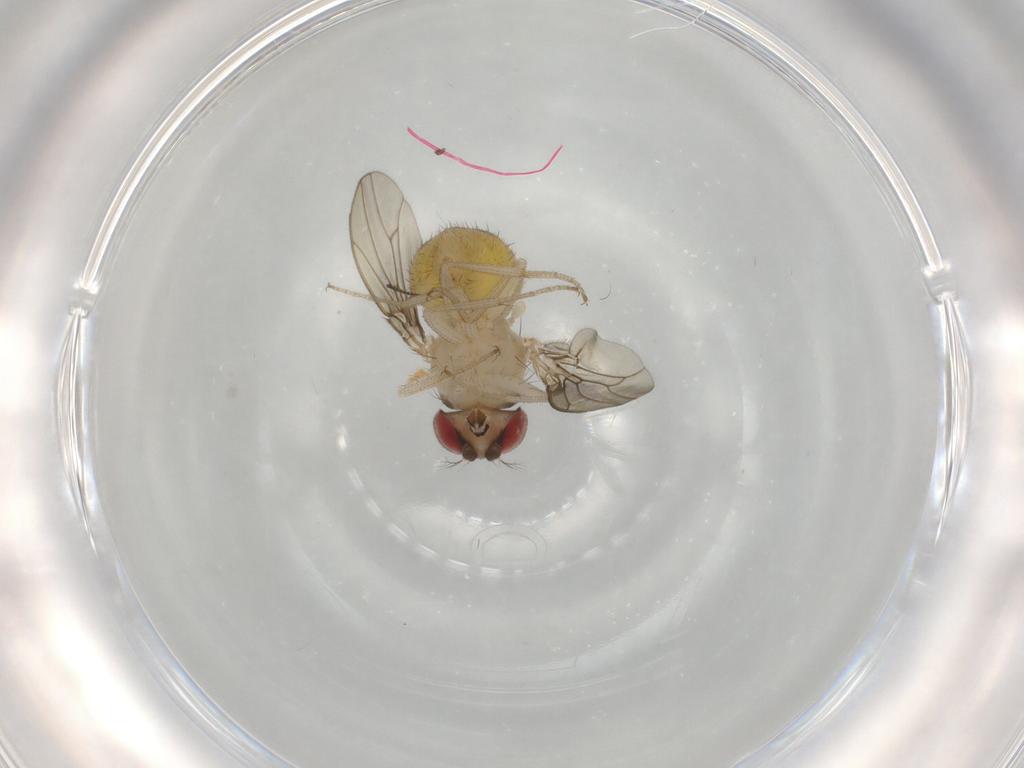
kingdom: Animalia
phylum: Arthropoda
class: Insecta
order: Diptera
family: Drosophilidae
